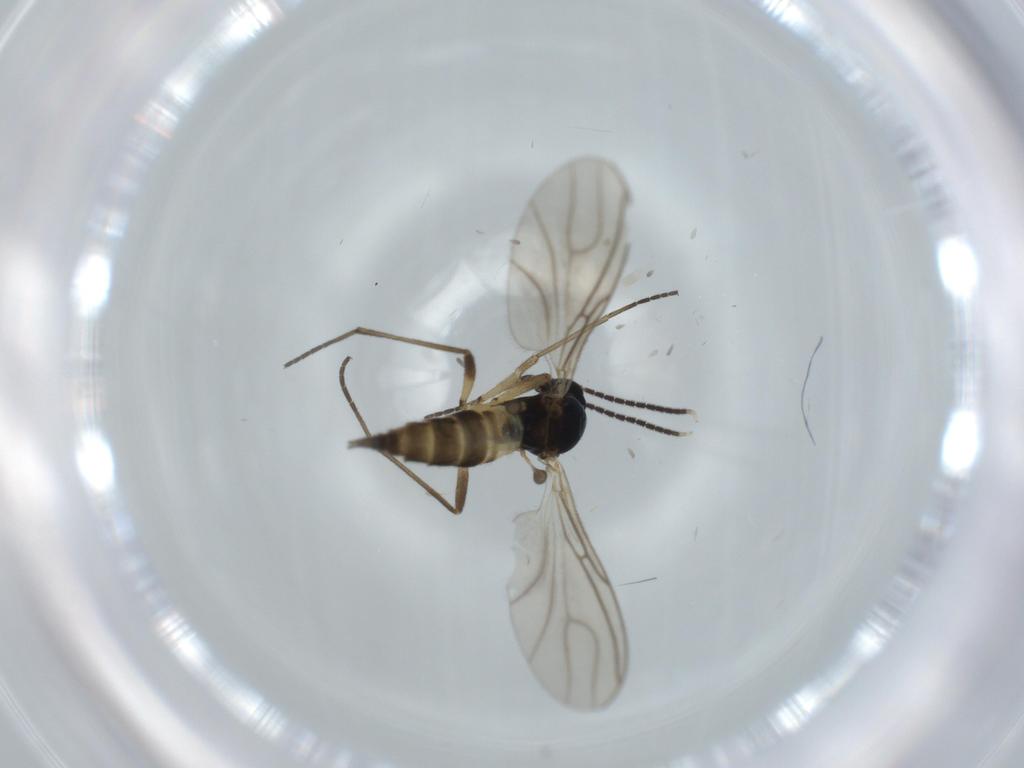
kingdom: Animalia
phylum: Arthropoda
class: Insecta
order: Diptera
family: Sciaridae
